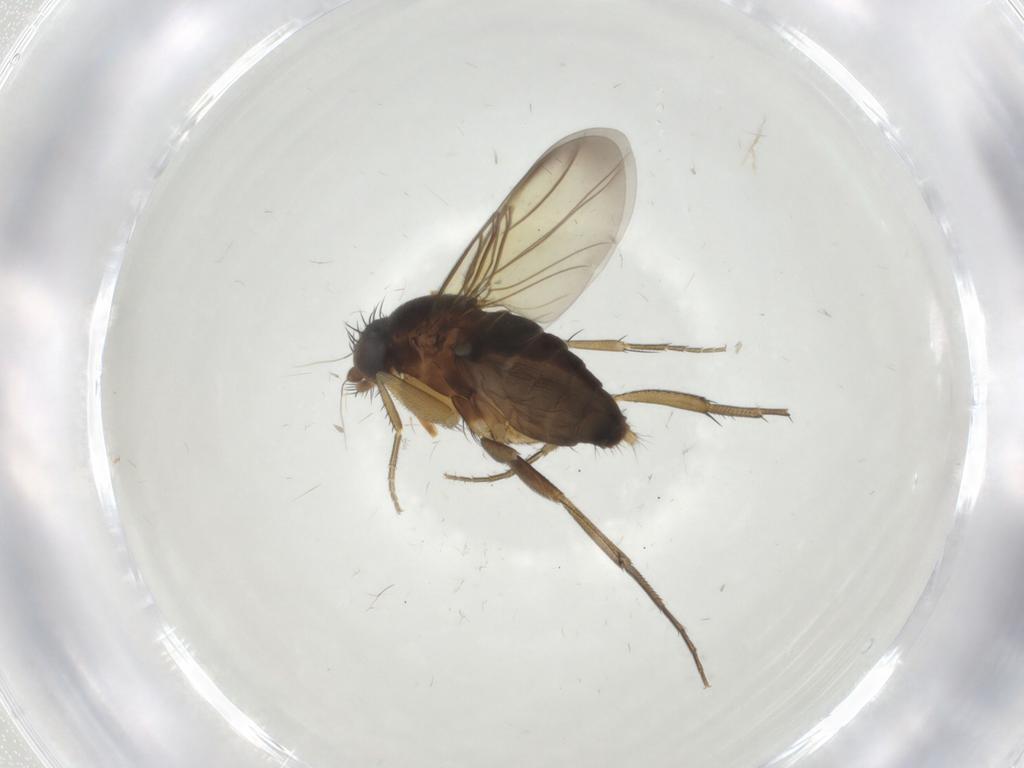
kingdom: Animalia
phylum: Arthropoda
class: Insecta
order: Diptera
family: Phoridae
